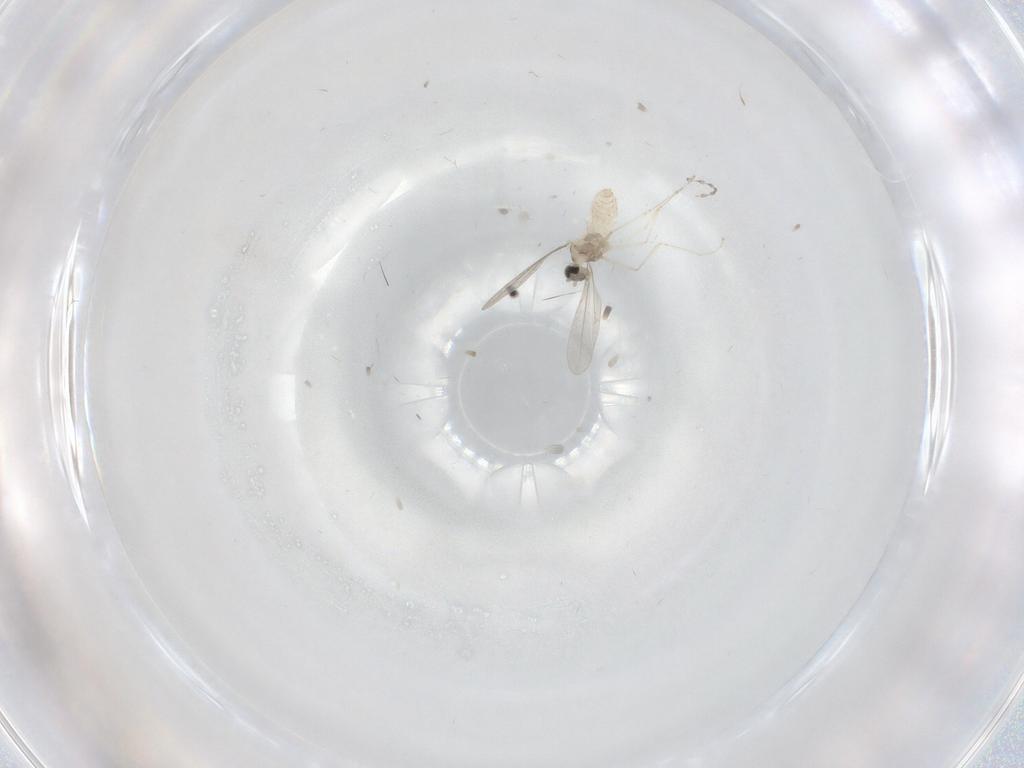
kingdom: Animalia
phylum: Arthropoda
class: Insecta
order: Diptera
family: Cecidomyiidae
